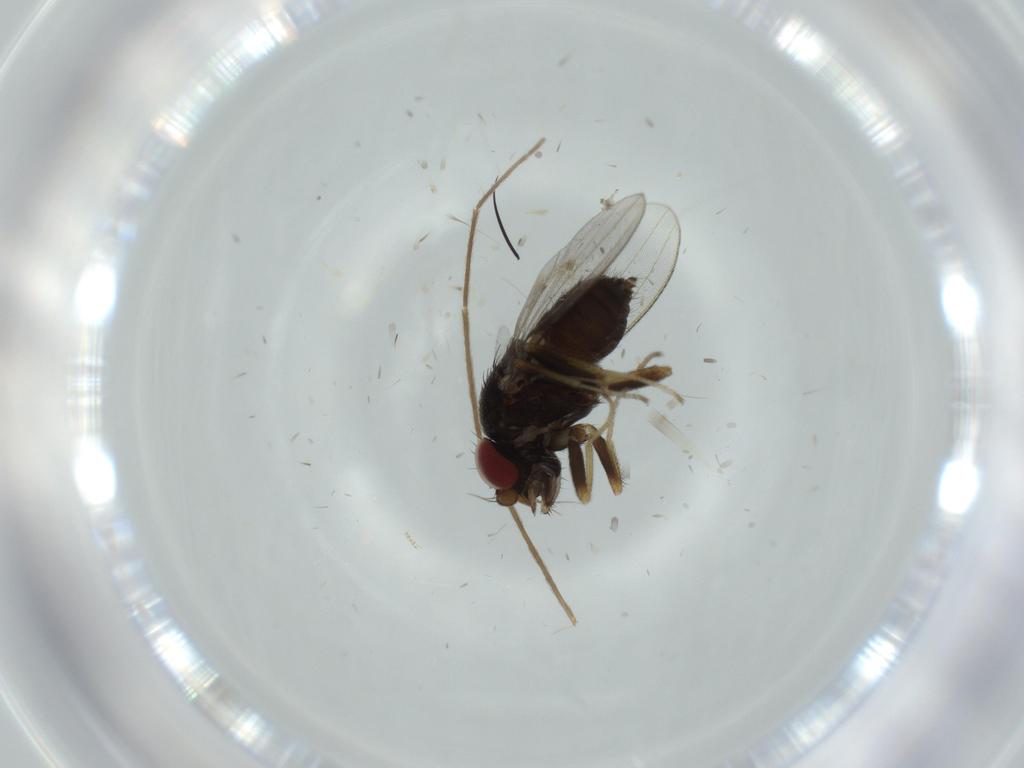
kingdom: Animalia
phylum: Arthropoda
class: Insecta
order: Diptera
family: Milichiidae
